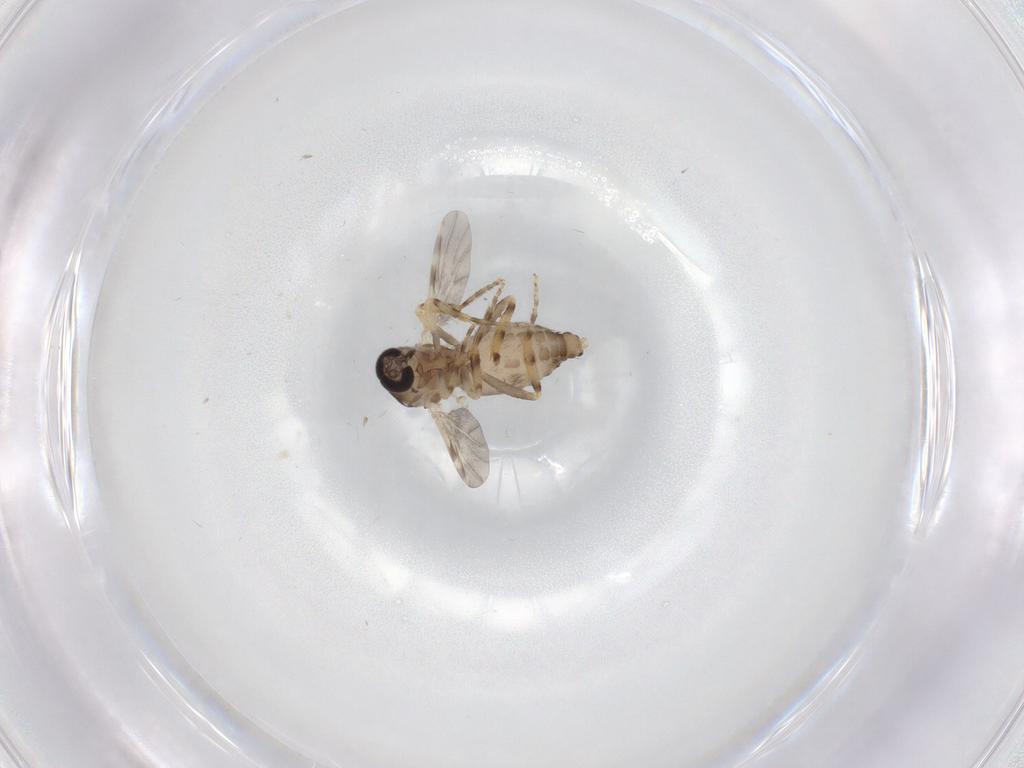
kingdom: Animalia
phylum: Arthropoda
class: Insecta
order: Diptera
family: Ceratopogonidae
